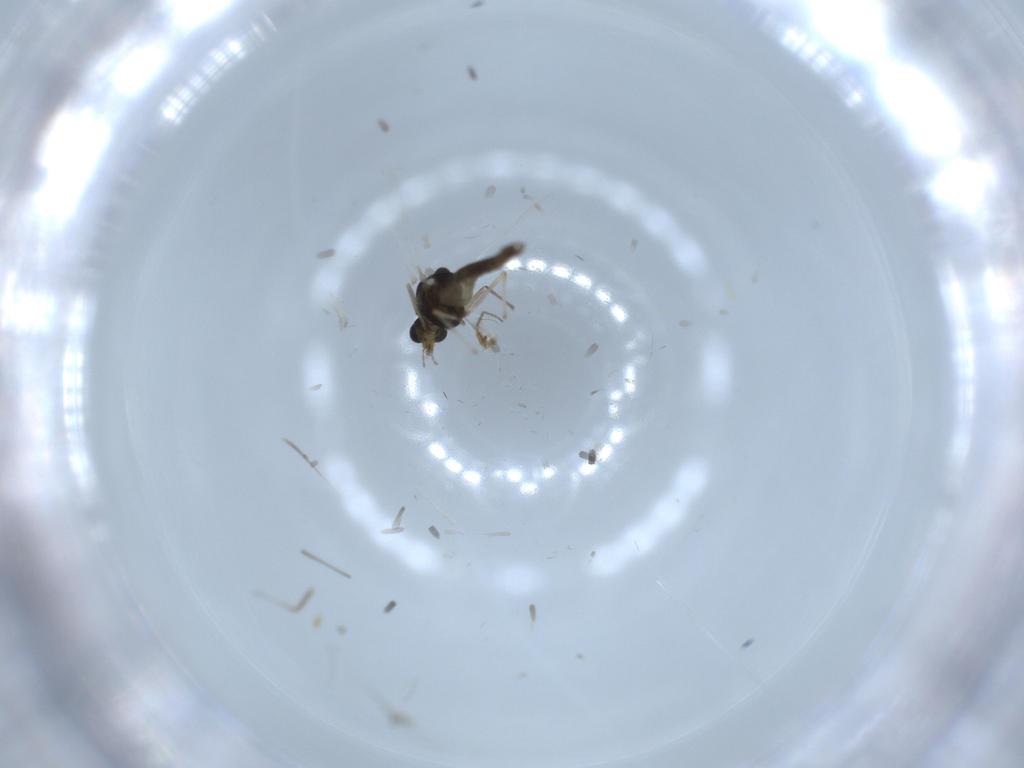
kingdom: Animalia
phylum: Arthropoda
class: Insecta
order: Diptera
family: Chironomidae
